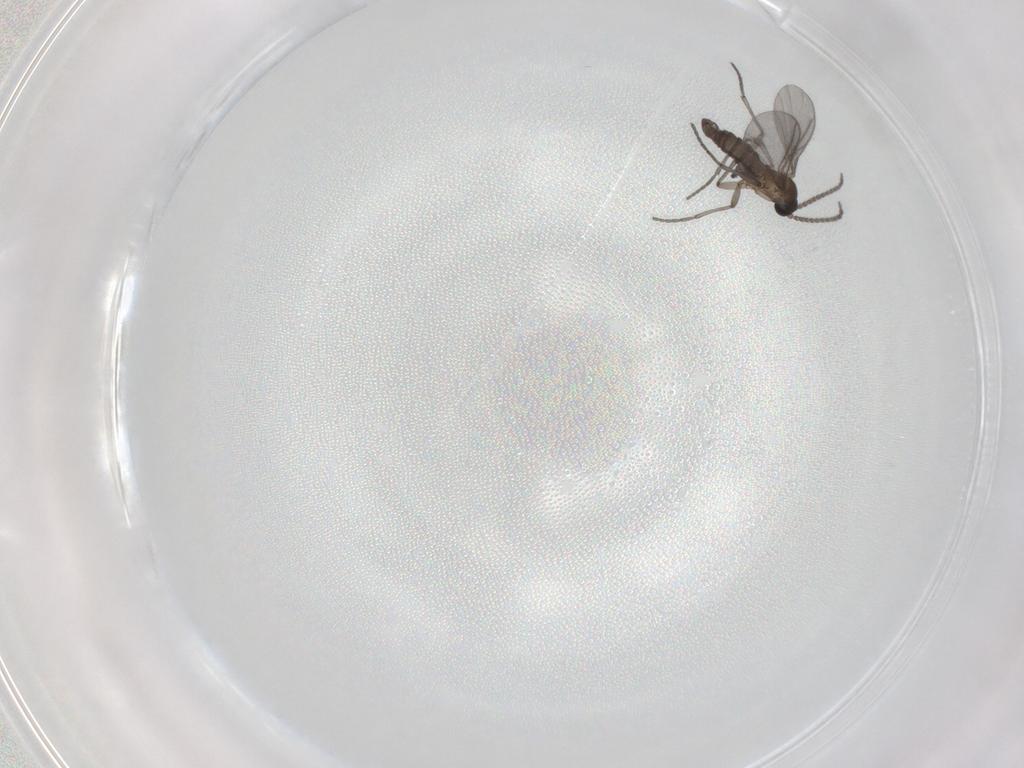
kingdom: Animalia
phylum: Arthropoda
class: Insecta
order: Diptera
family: Sciaridae
